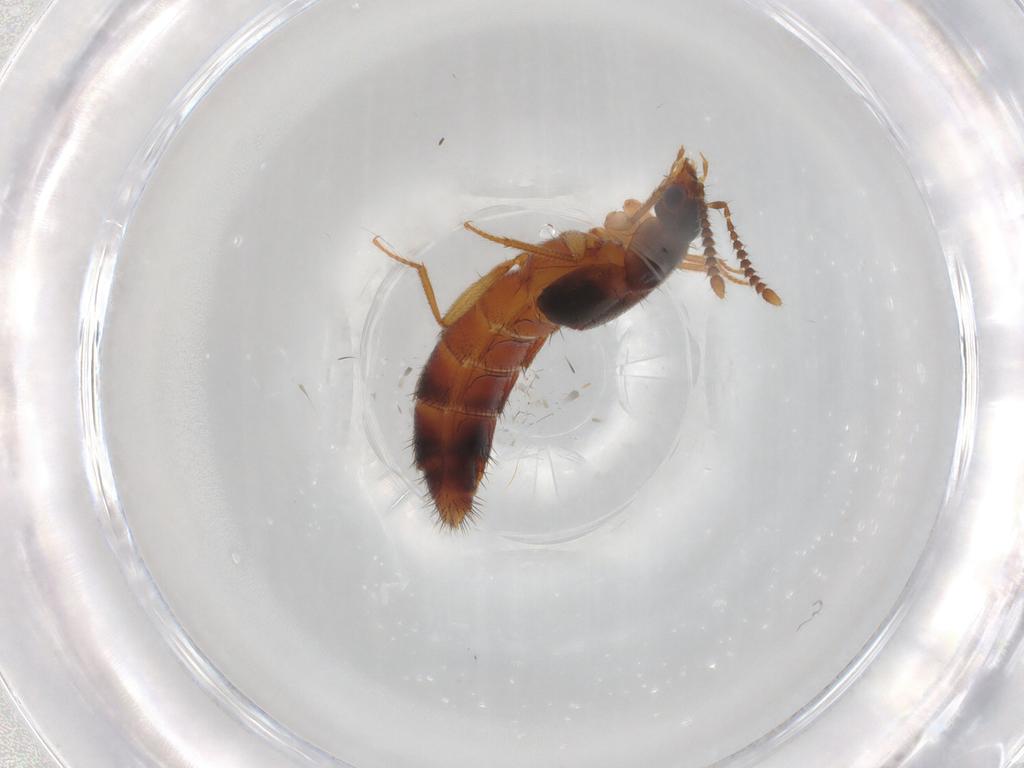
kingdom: Animalia
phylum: Arthropoda
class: Insecta
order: Coleoptera
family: Staphylinidae
